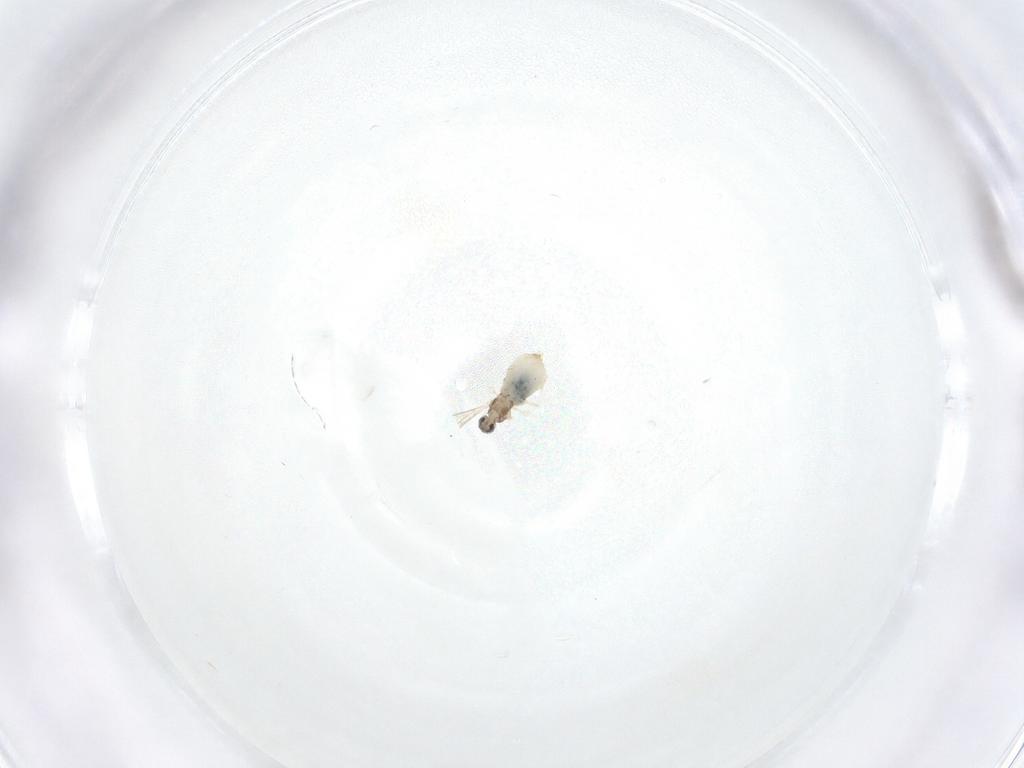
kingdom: Animalia
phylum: Arthropoda
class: Insecta
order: Diptera
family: Cecidomyiidae
